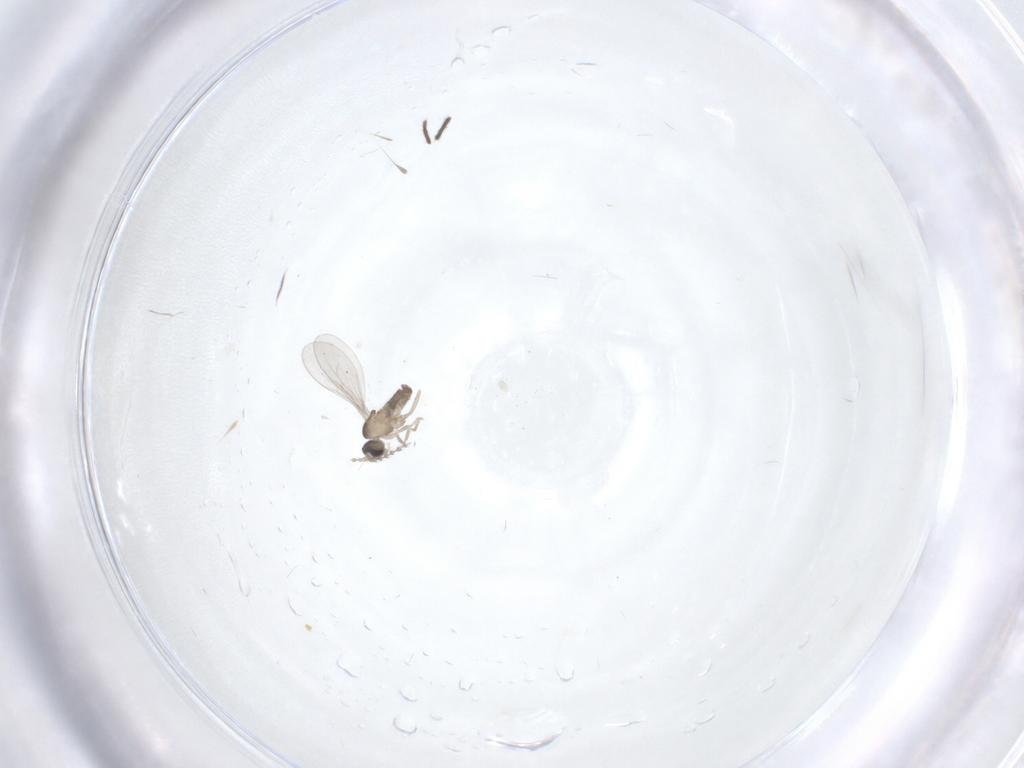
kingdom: Animalia
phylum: Arthropoda
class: Insecta
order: Diptera
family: Cecidomyiidae
